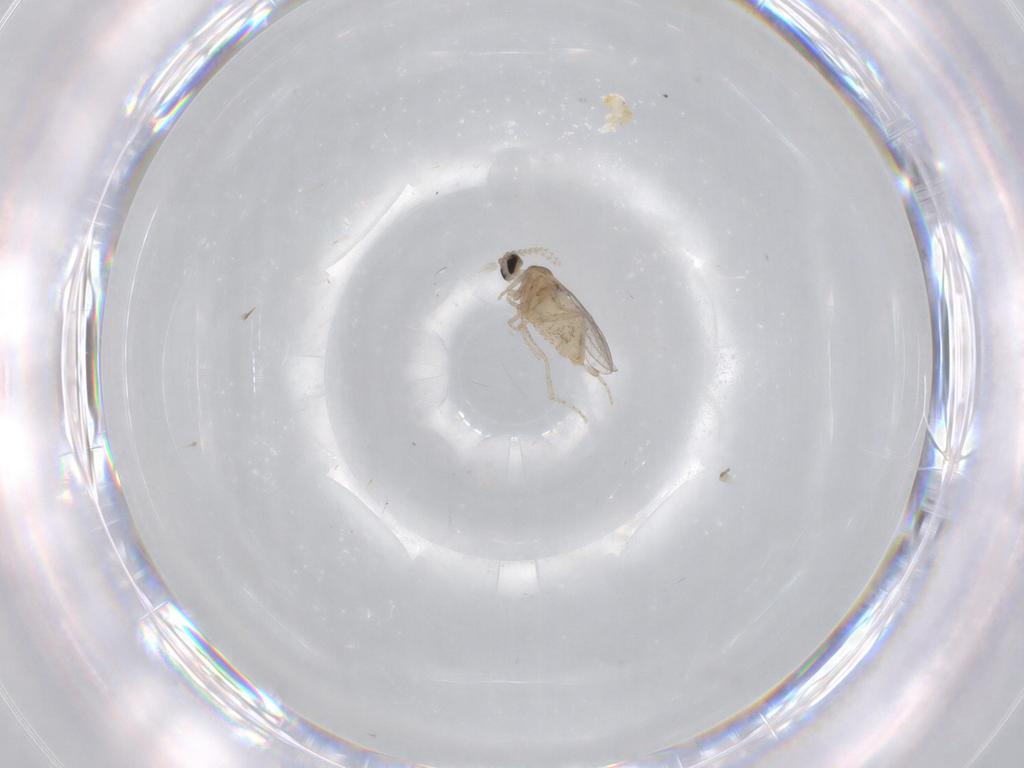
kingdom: Animalia
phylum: Arthropoda
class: Insecta
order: Diptera
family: Cecidomyiidae
